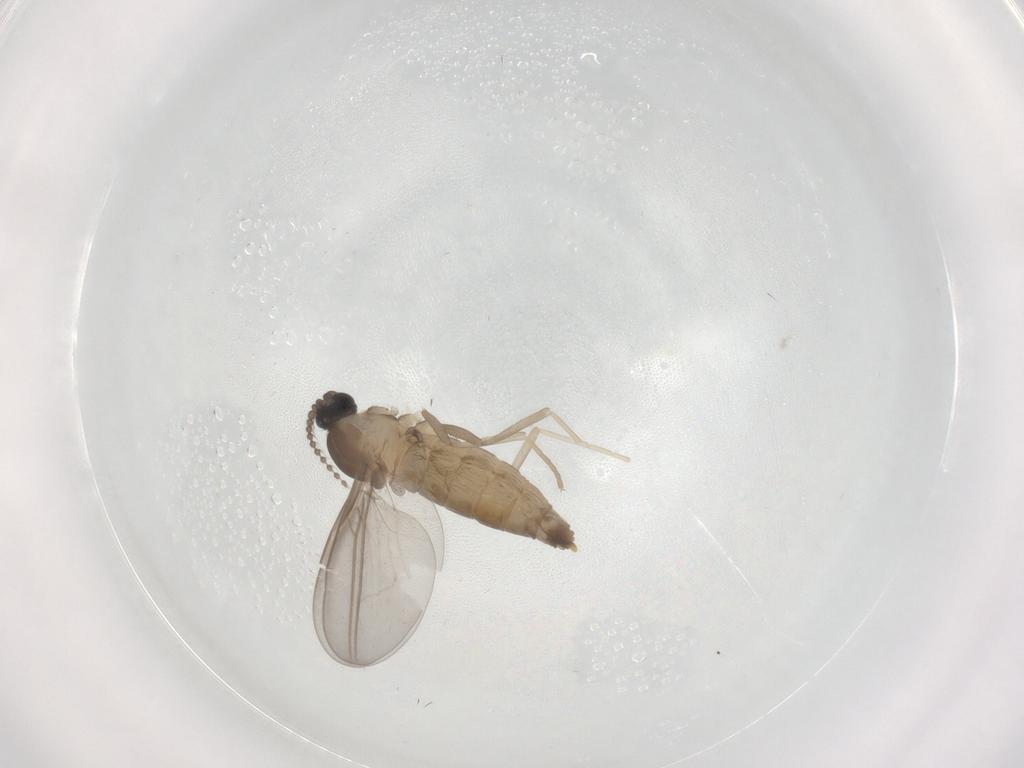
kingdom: Animalia
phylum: Arthropoda
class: Insecta
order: Diptera
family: Cecidomyiidae
